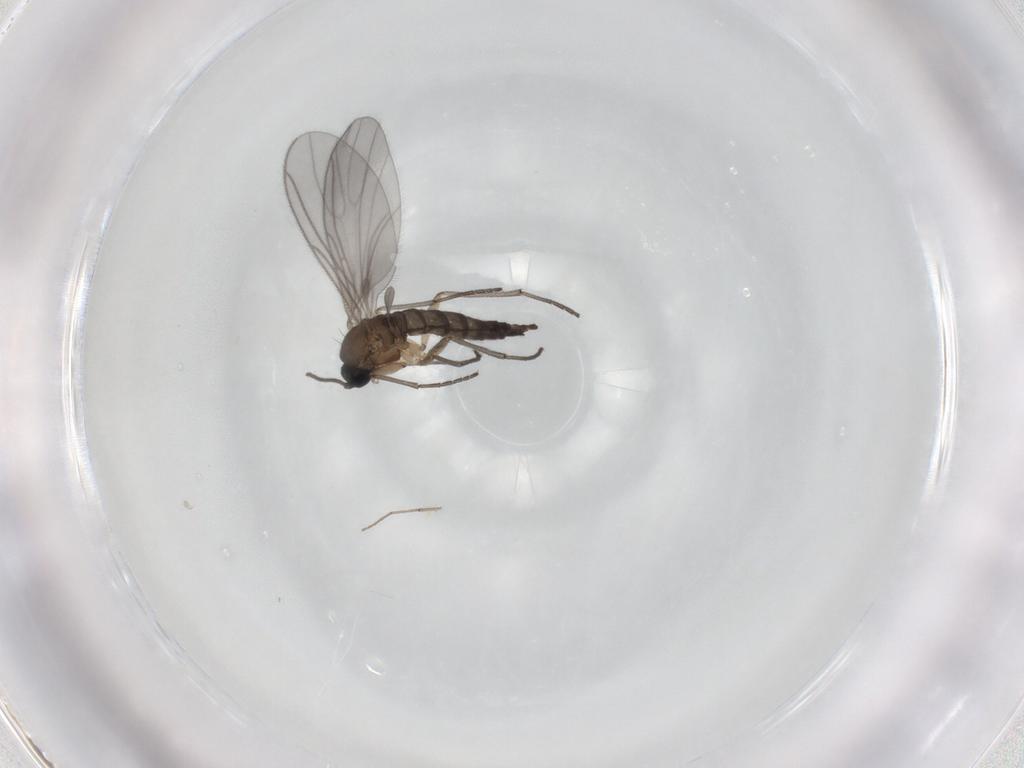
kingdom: Animalia
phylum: Arthropoda
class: Insecta
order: Diptera
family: Sciaridae
